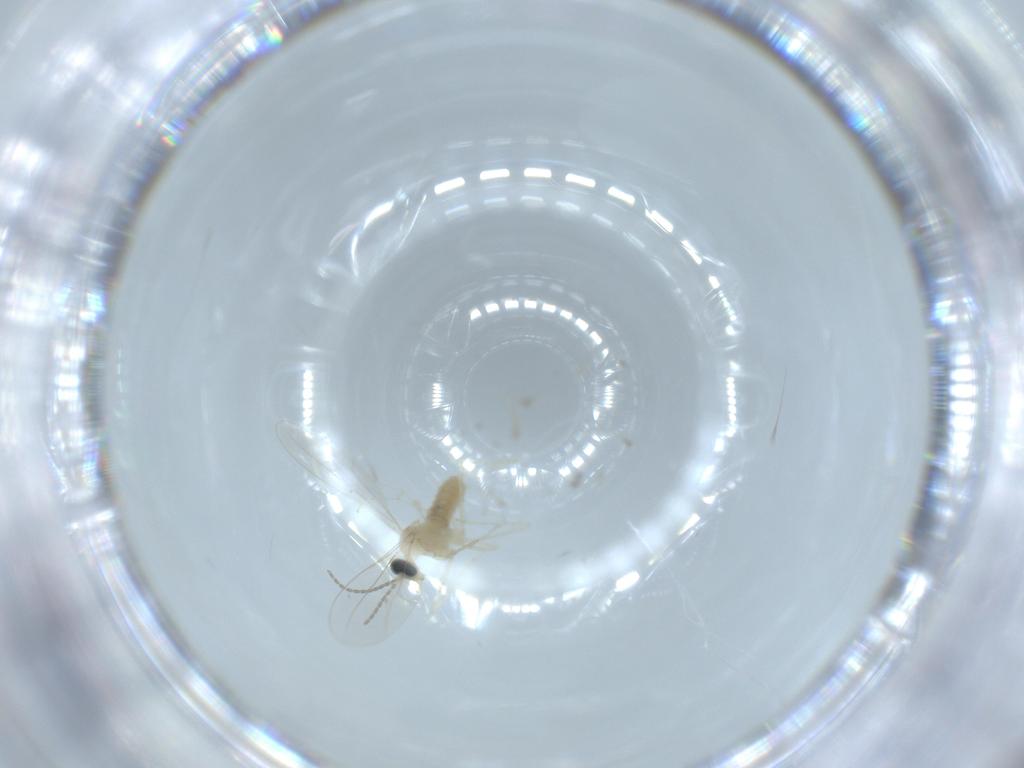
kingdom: Animalia
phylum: Arthropoda
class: Insecta
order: Diptera
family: Cecidomyiidae
